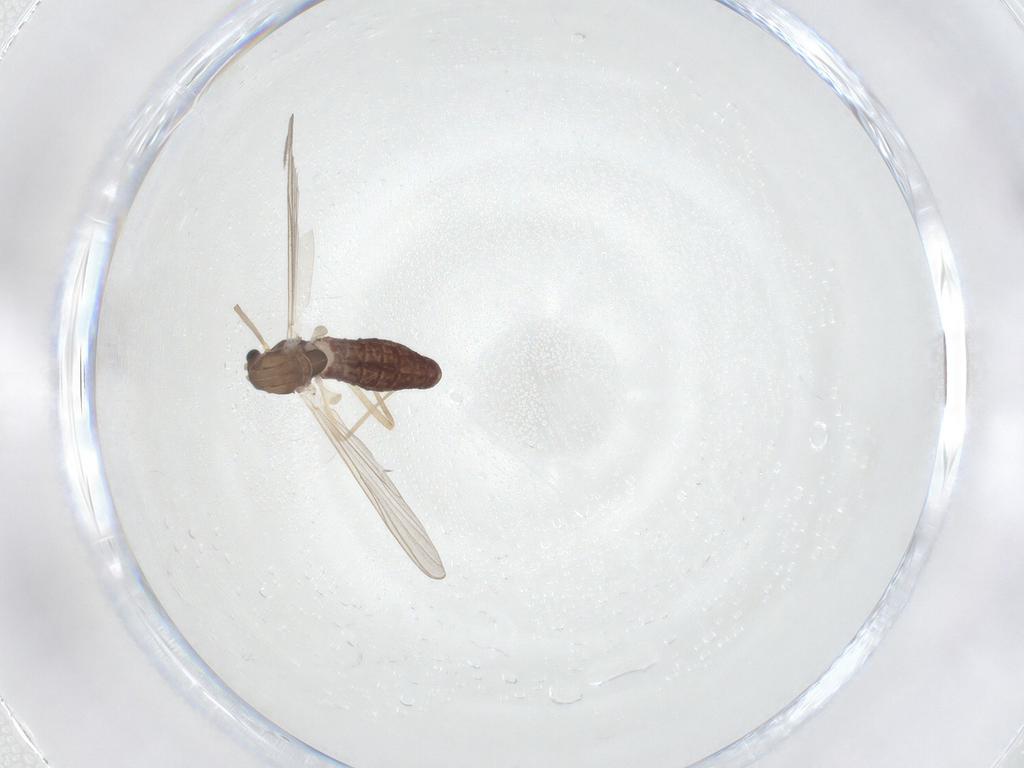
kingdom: Animalia
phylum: Arthropoda
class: Insecta
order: Diptera
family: Chironomidae
